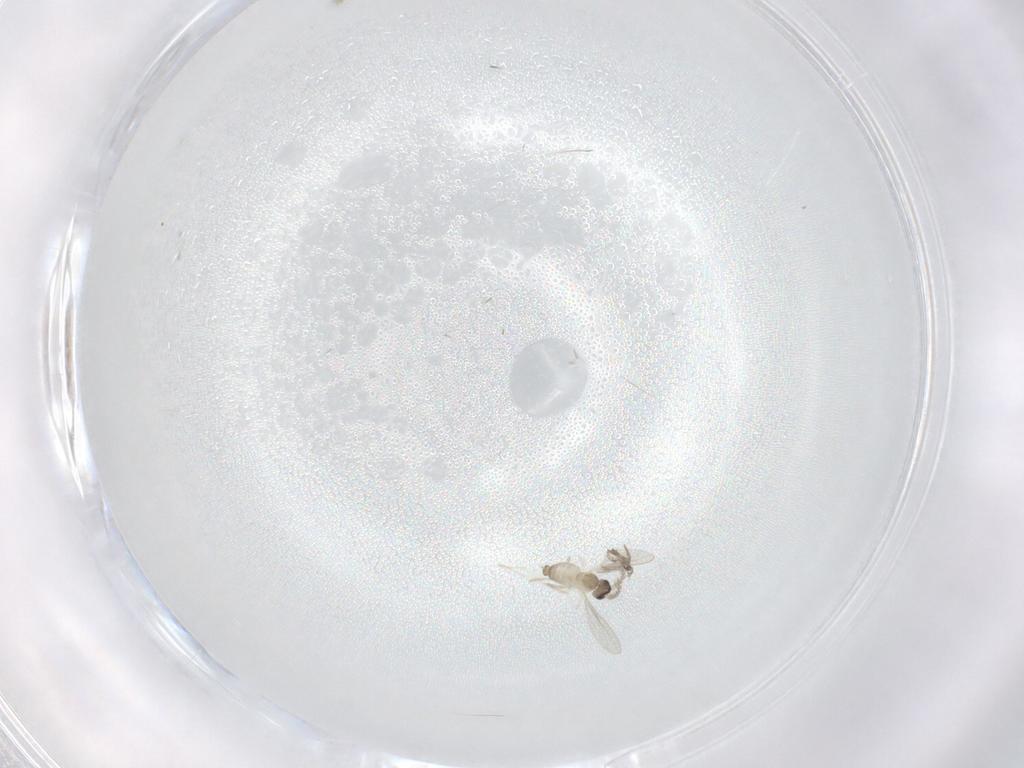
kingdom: Animalia
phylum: Arthropoda
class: Insecta
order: Diptera
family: Cecidomyiidae
